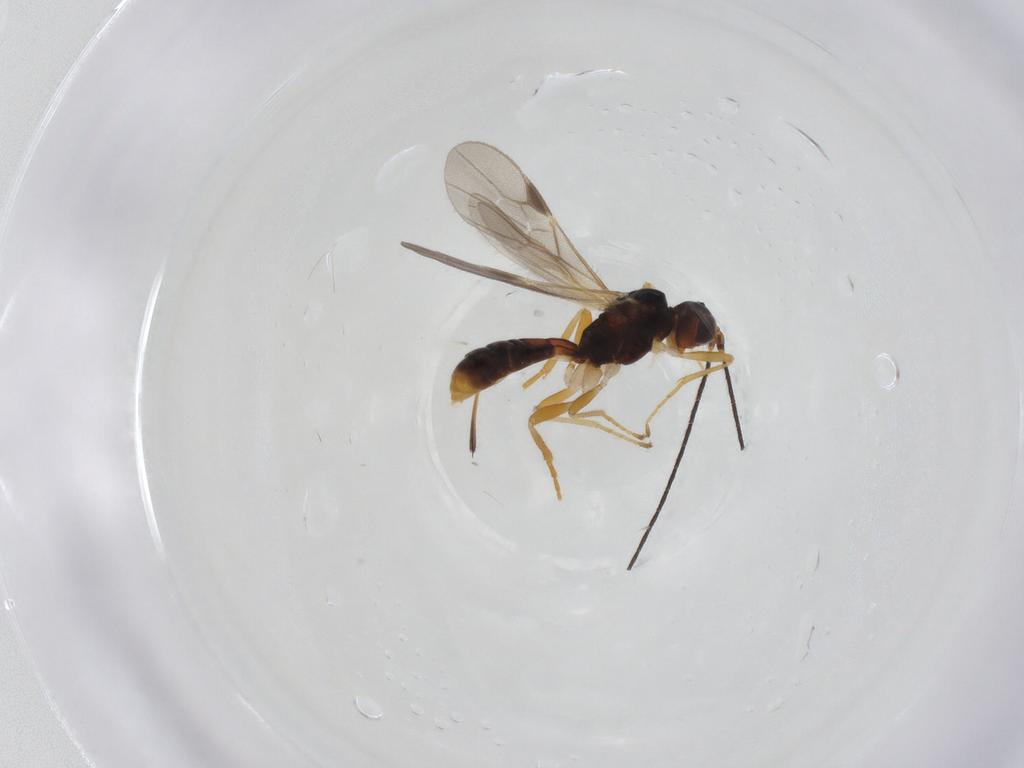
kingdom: Animalia
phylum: Arthropoda
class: Insecta
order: Hymenoptera
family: Braconidae
